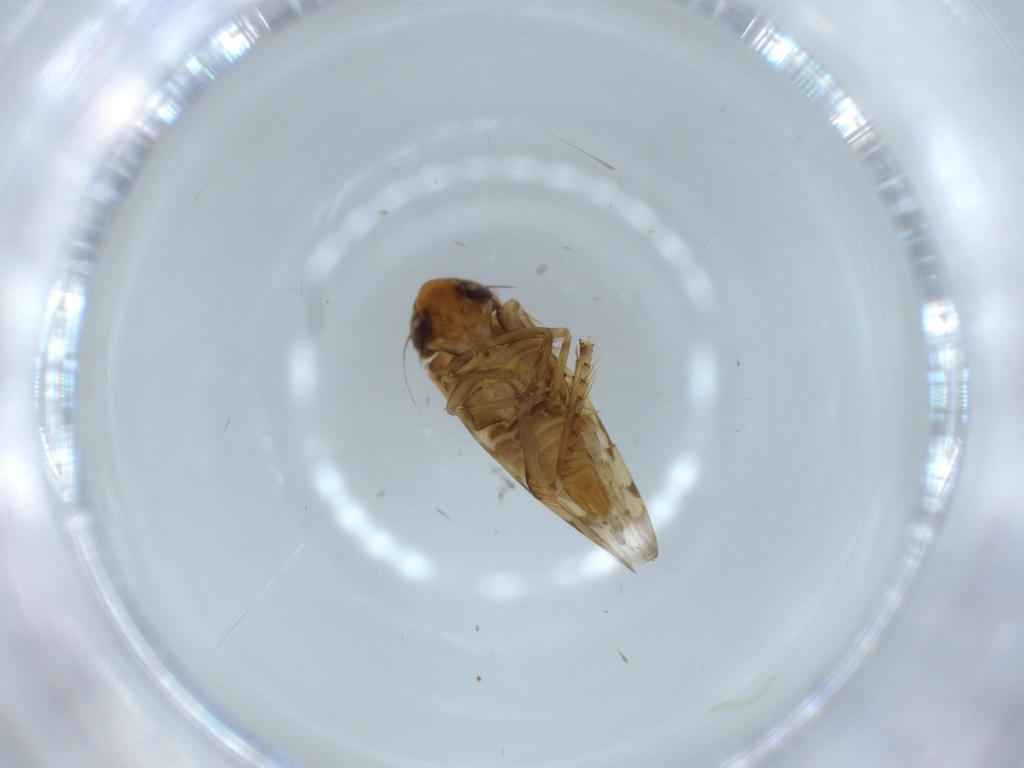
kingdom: Animalia
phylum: Arthropoda
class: Insecta
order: Hemiptera
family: Cicadellidae
